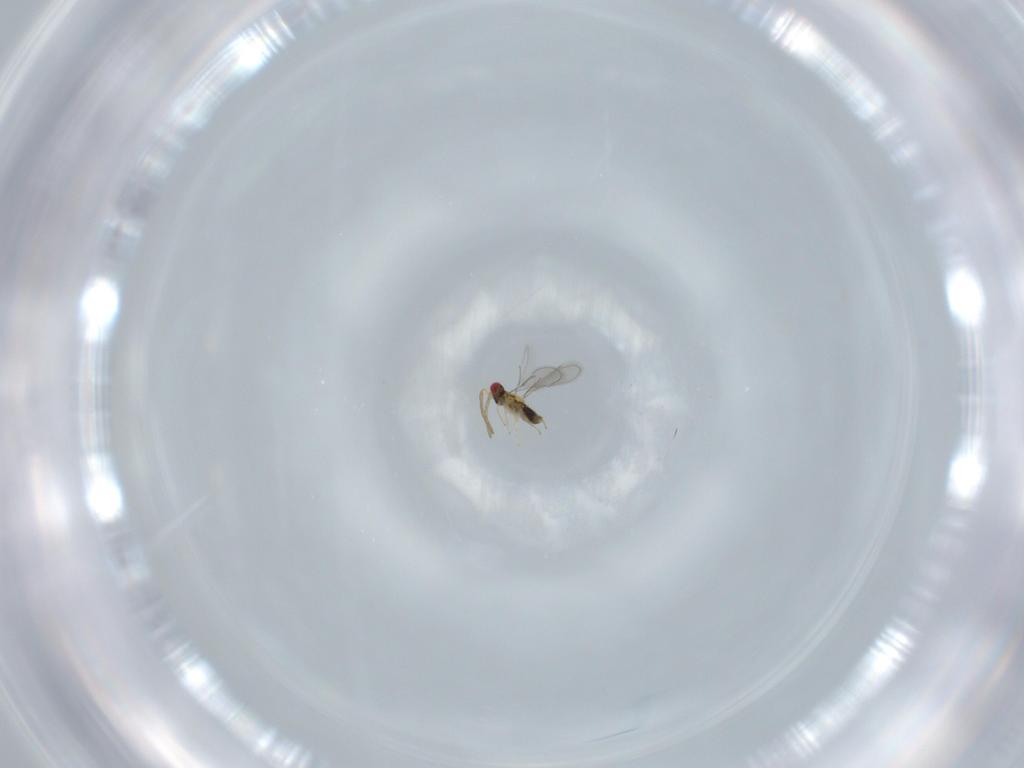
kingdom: Animalia
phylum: Arthropoda
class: Insecta
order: Hymenoptera
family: Aphelinidae
